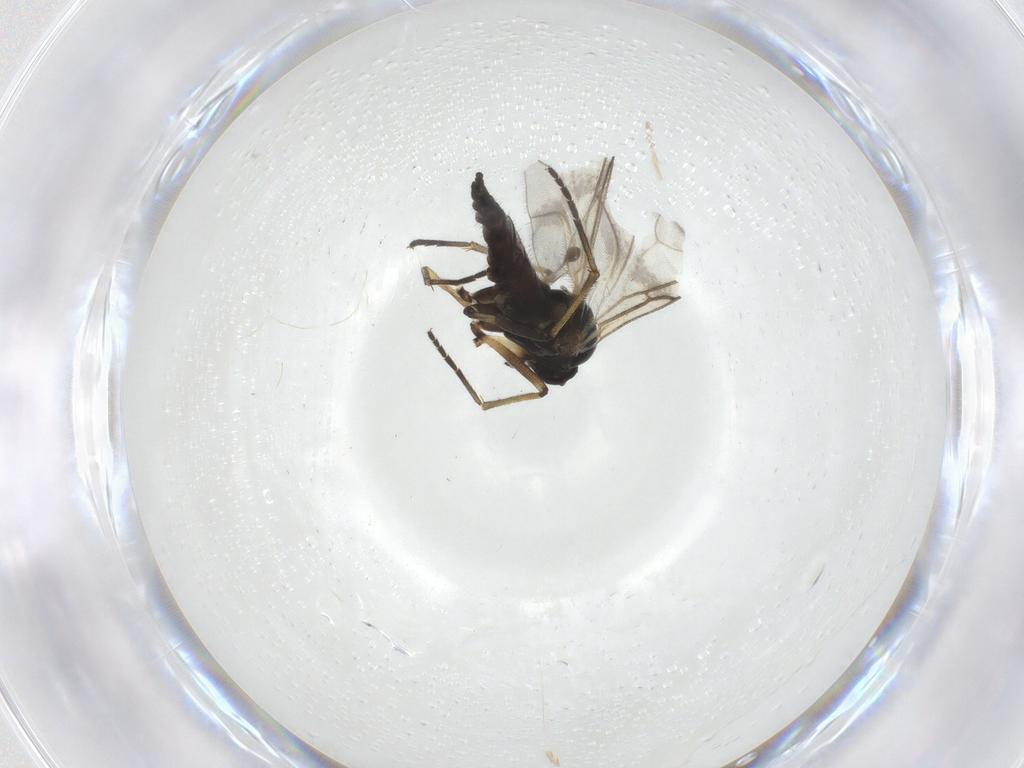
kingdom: Animalia
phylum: Arthropoda
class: Insecta
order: Diptera
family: Sciaridae
